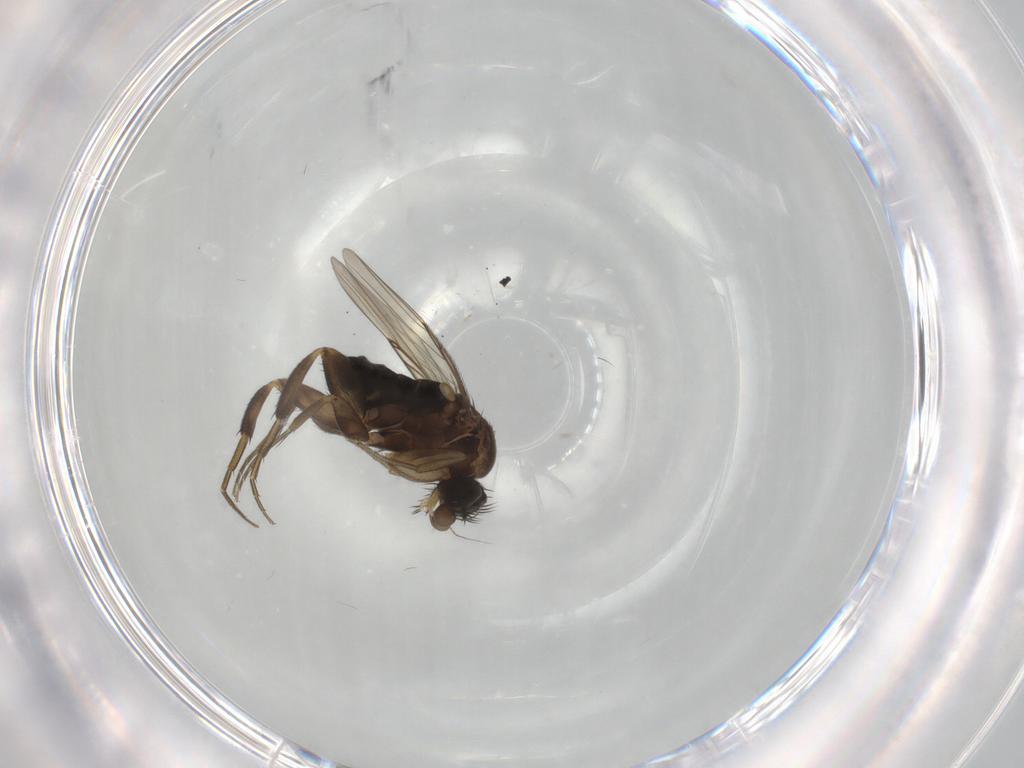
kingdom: Animalia
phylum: Arthropoda
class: Insecta
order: Diptera
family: Phoridae
